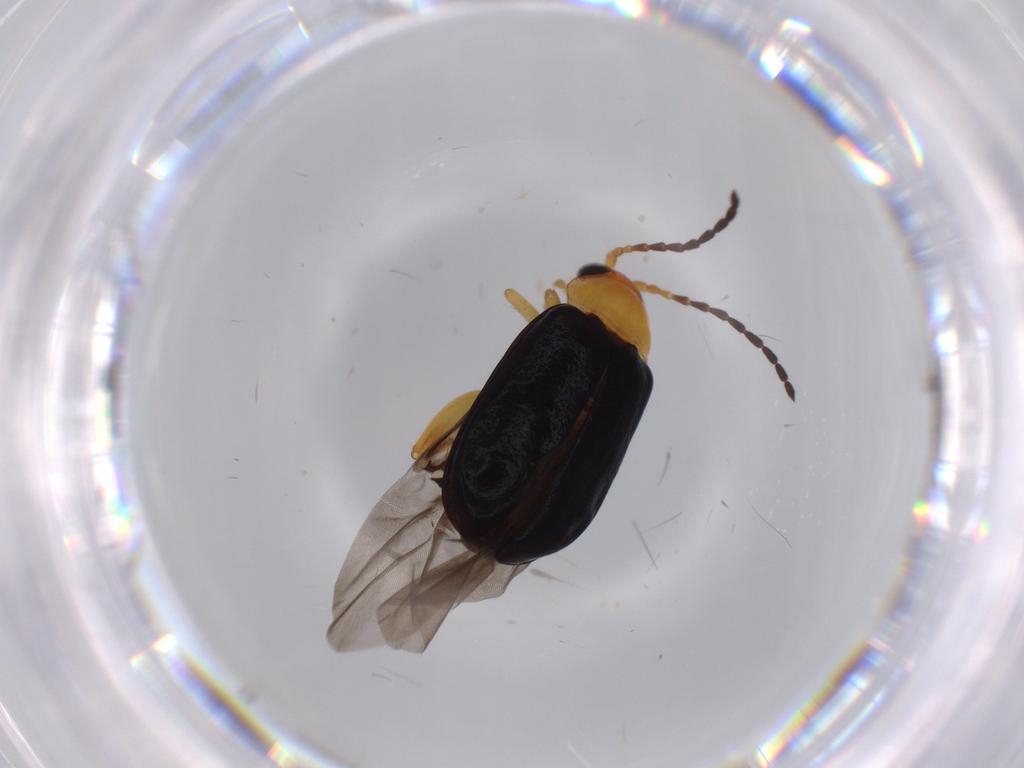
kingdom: Animalia
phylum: Arthropoda
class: Insecta
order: Coleoptera
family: Chrysomelidae
